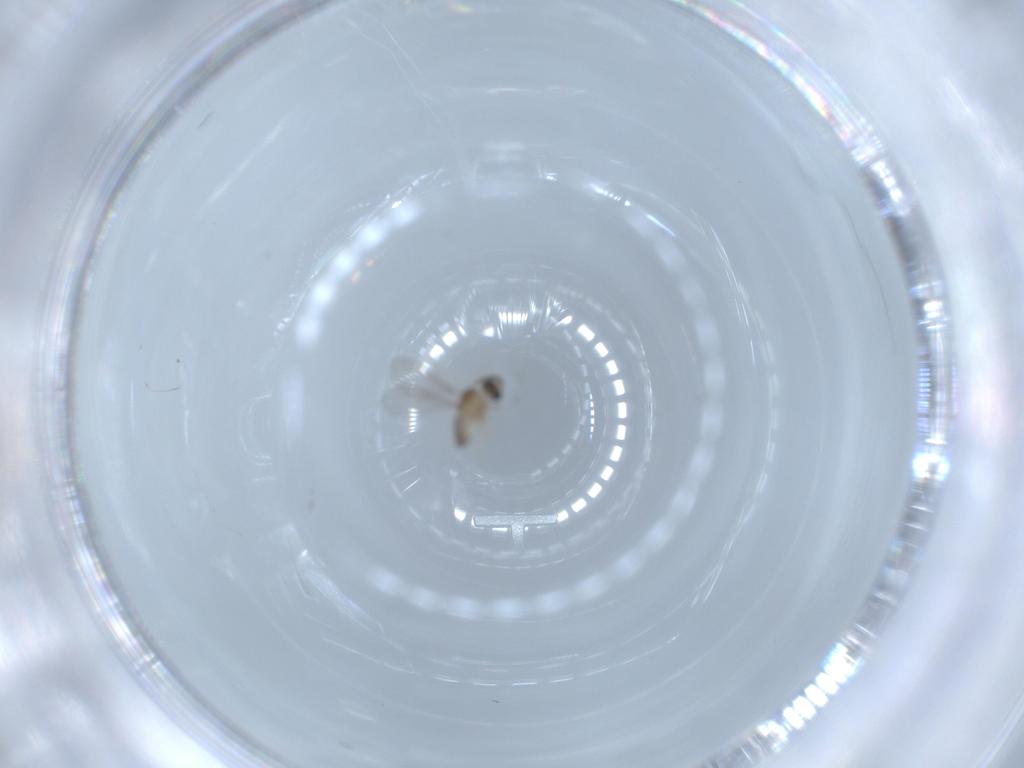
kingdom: Animalia
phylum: Arthropoda
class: Insecta
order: Diptera
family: Cecidomyiidae
